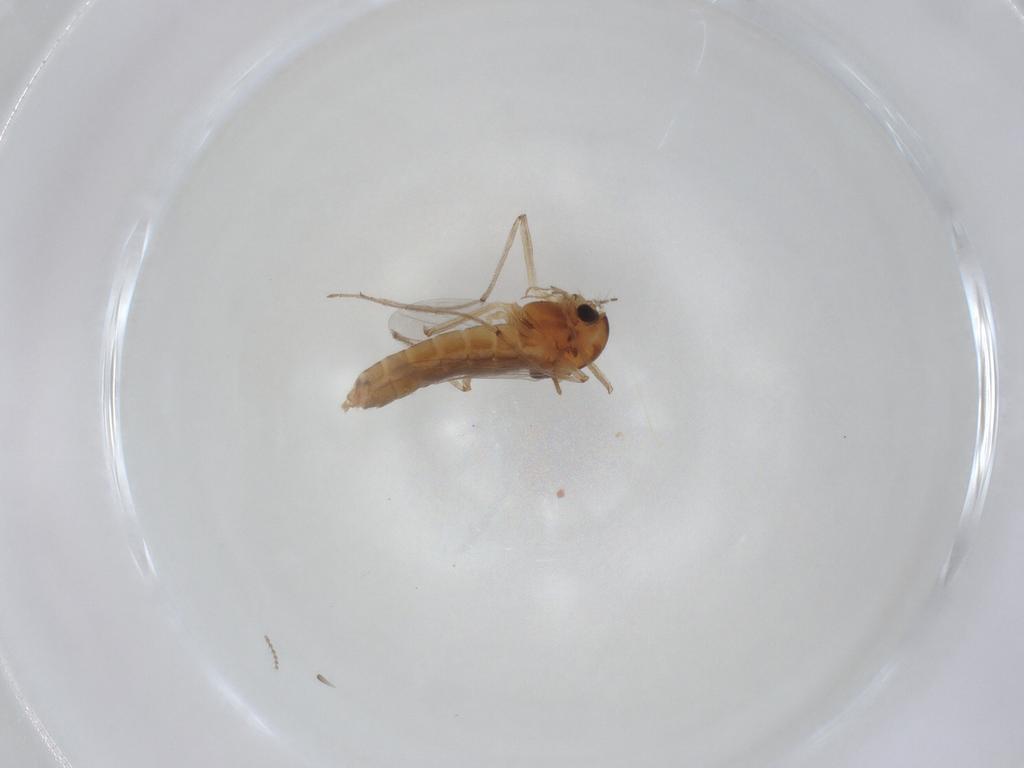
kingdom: Animalia
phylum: Arthropoda
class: Insecta
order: Diptera
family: Chironomidae
